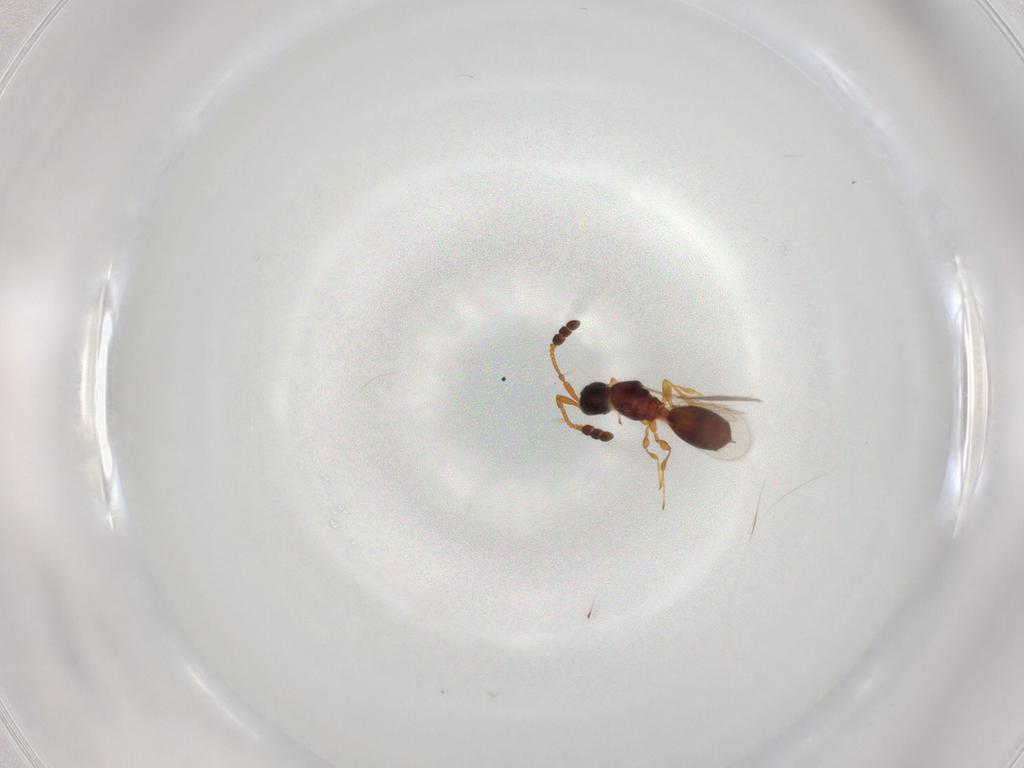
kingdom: Animalia
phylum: Arthropoda
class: Insecta
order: Hymenoptera
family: Diapriidae
